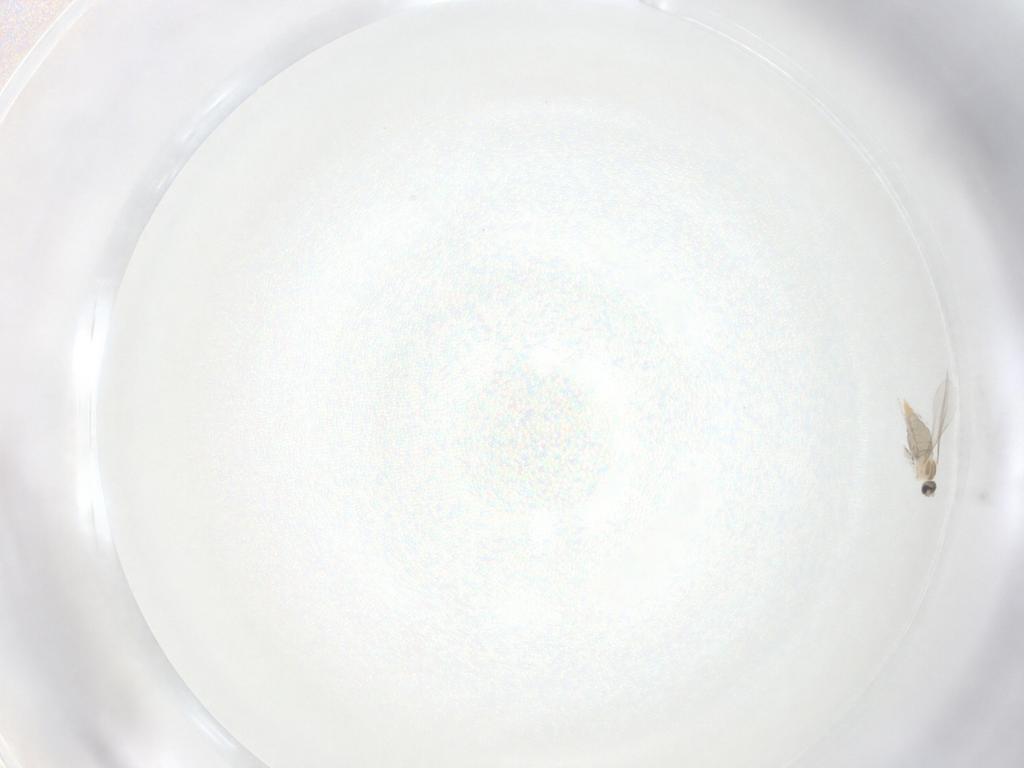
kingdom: Animalia
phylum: Arthropoda
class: Insecta
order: Diptera
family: Cecidomyiidae
